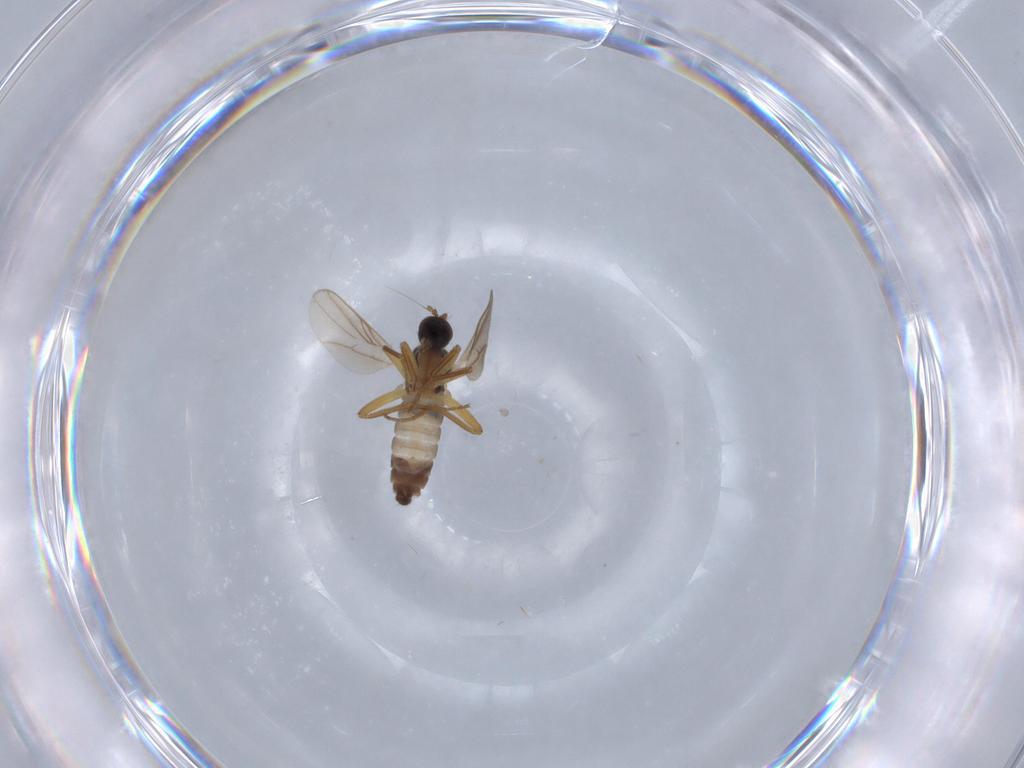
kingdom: Animalia
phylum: Arthropoda
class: Insecta
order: Diptera
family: Hybotidae
